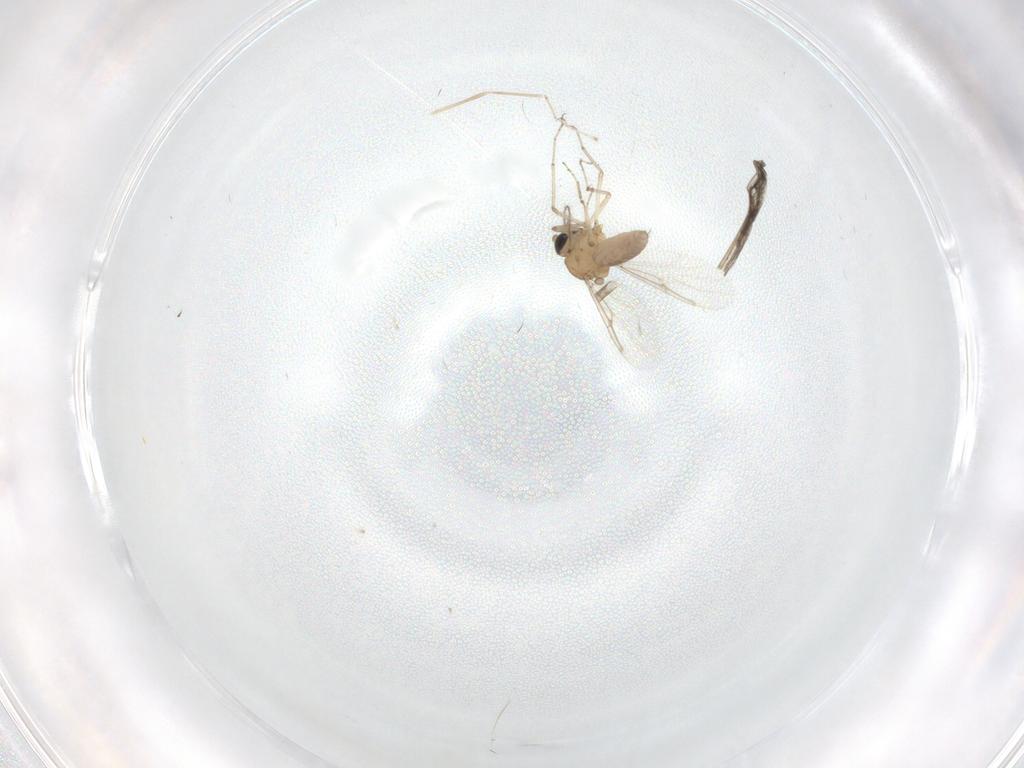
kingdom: Animalia
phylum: Arthropoda
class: Insecta
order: Diptera
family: Cecidomyiidae
